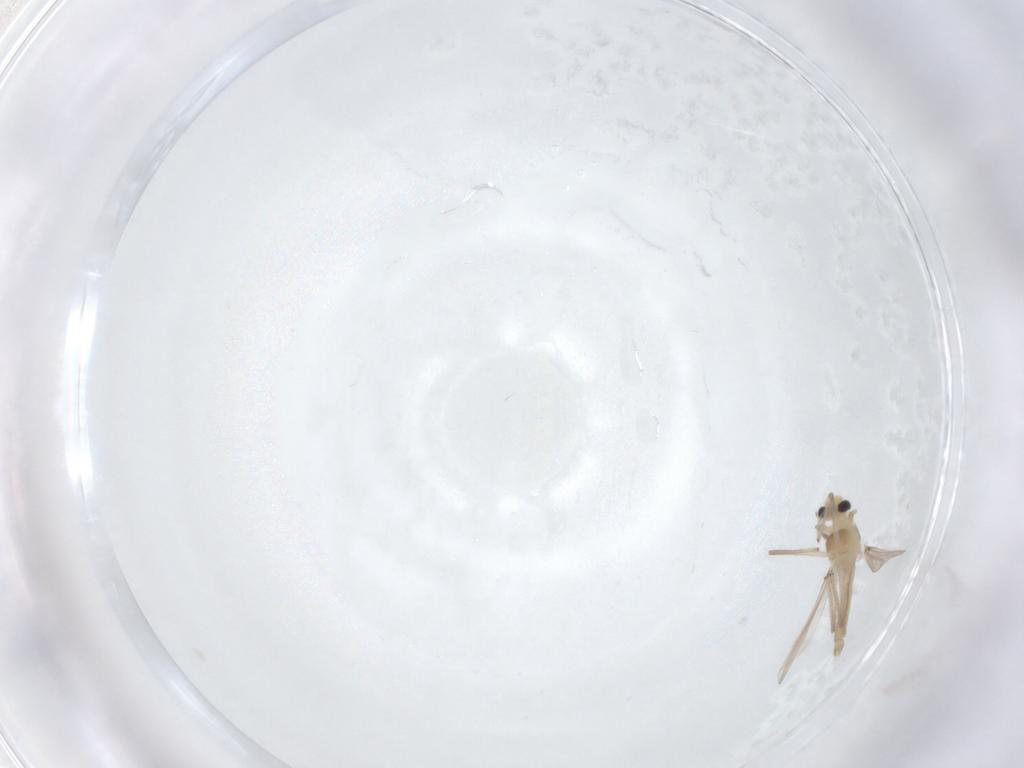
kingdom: Animalia
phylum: Arthropoda
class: Insecta
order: Diptera
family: Chironomidae
